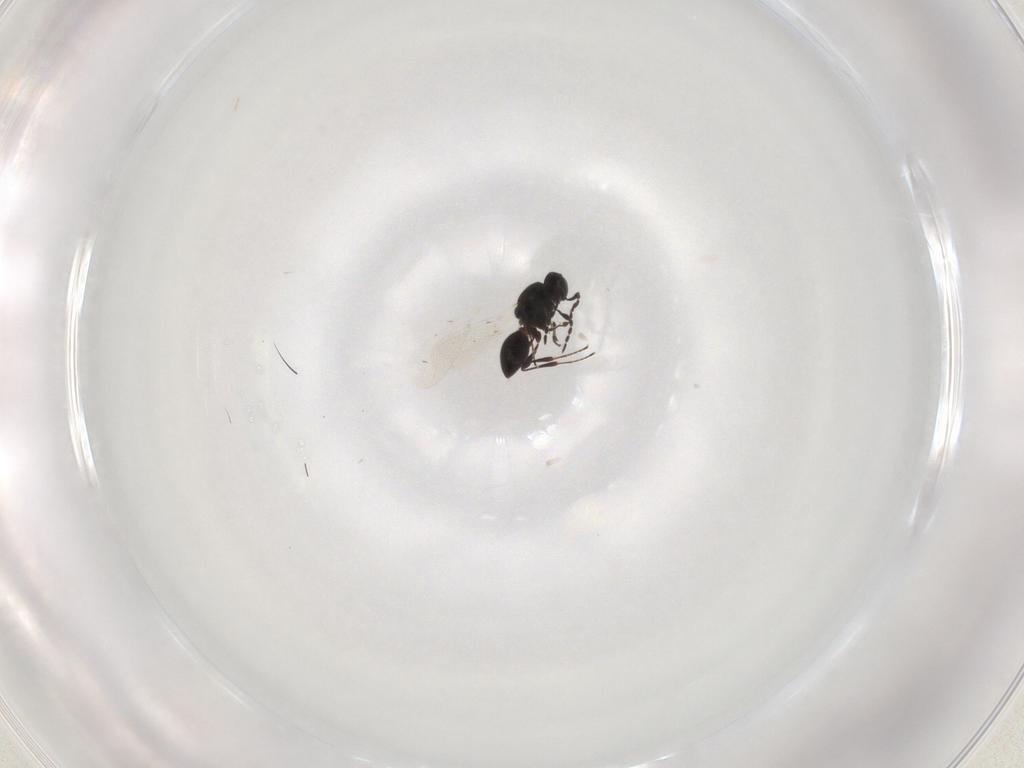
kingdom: Animalia
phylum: Arthropoda
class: Insecta
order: Hymenoptera
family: Platygastridae
